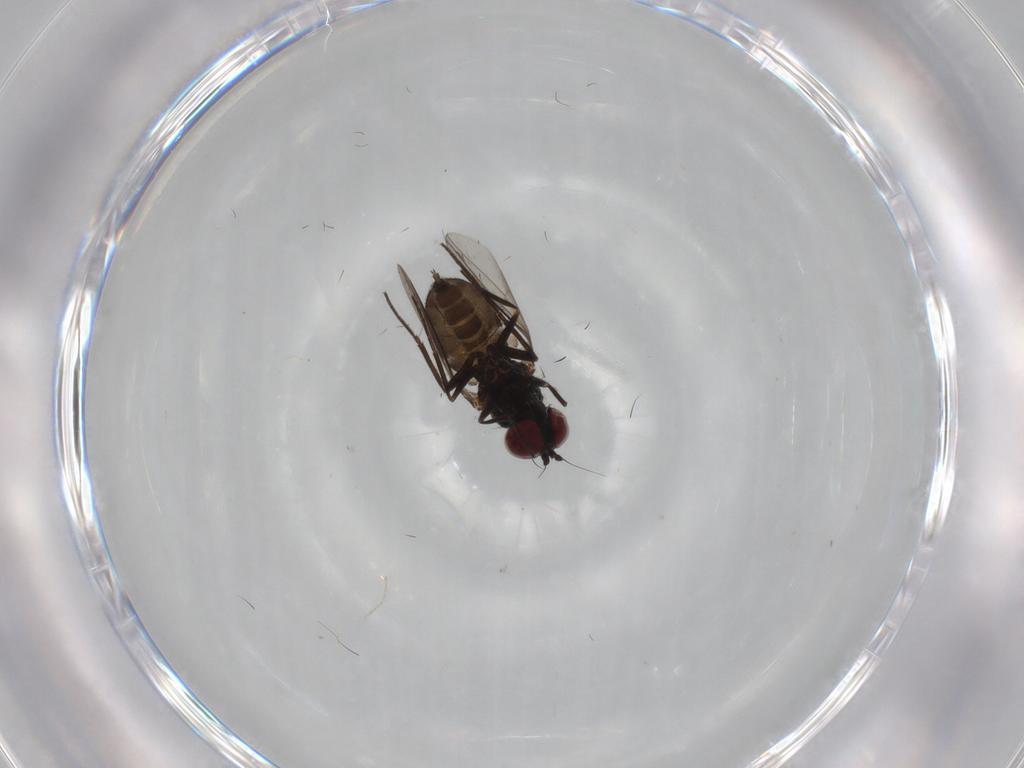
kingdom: Animalia
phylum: Arthropoda
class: Insecta
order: Diptera
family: Dolichopodidae
